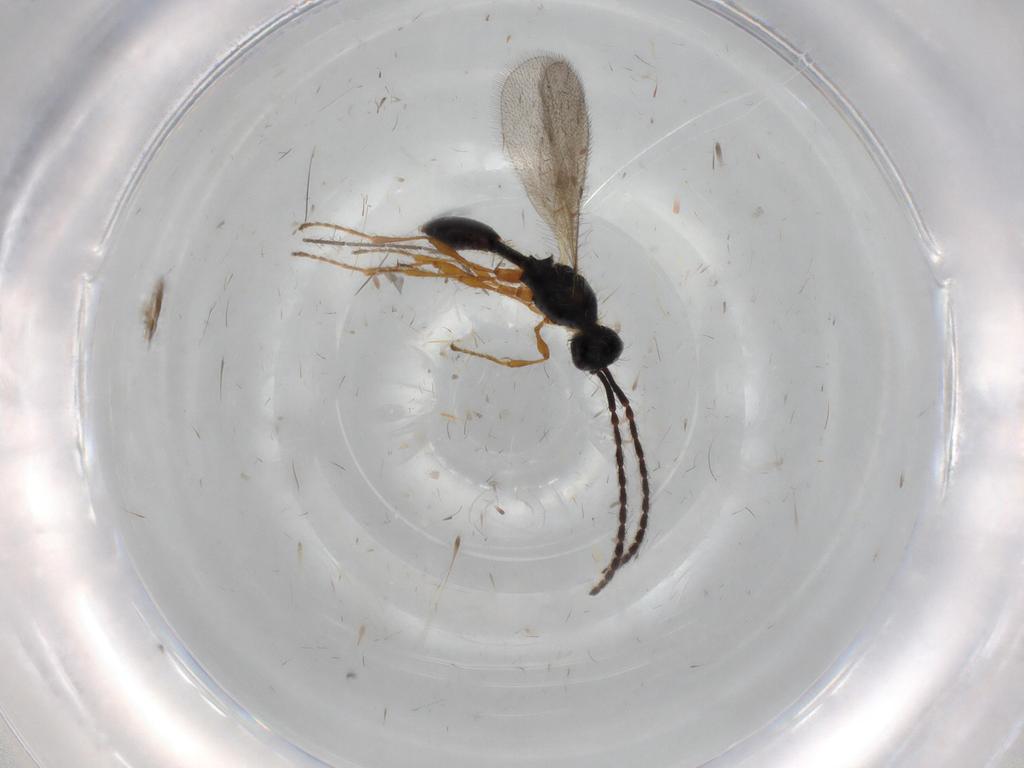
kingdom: Animalia
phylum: Arthropoda
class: Insecta
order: Hymenoptera
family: Diapriidae
